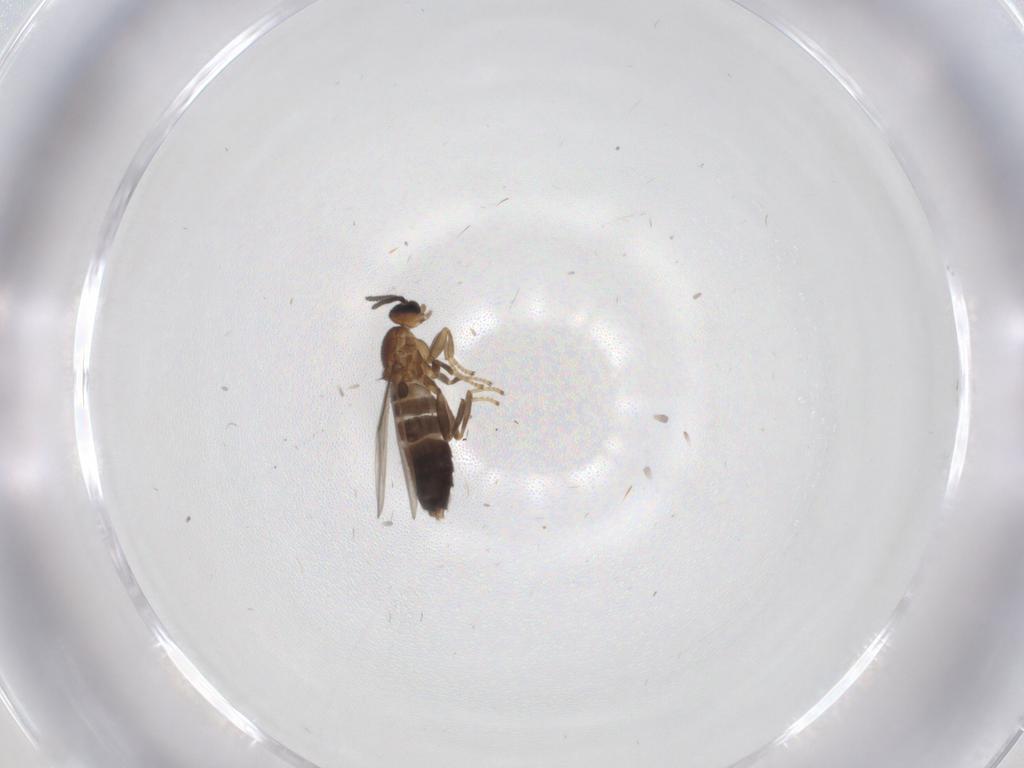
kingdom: Animalia
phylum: Arthropoda
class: Insecta
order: Diptera
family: Scatopsidae
